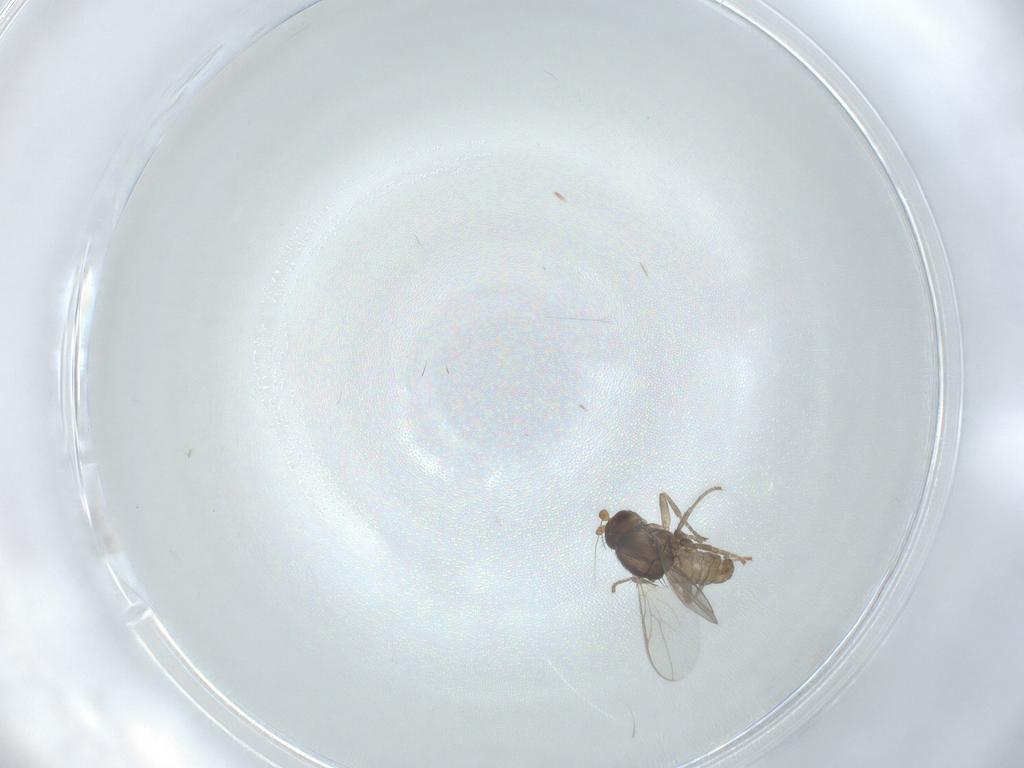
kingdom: Animalia
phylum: Arthropoda
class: Insecta
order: Diptera
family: Sphaeroceridae
